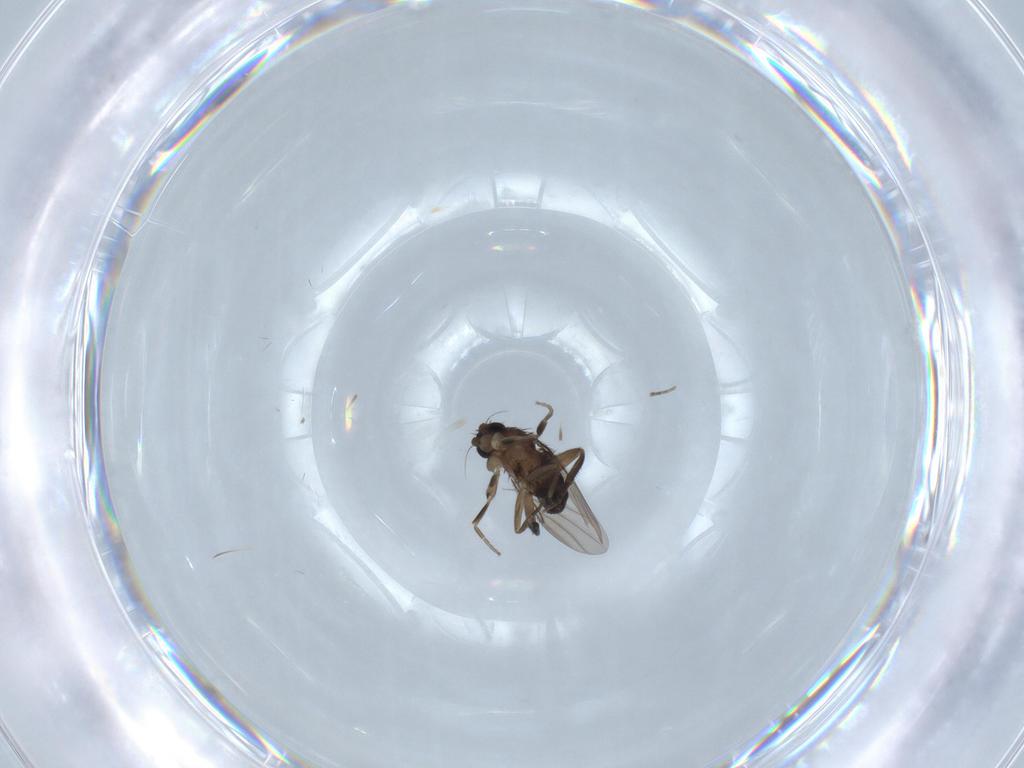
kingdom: Animalia
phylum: Arthropoda
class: Insecta
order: Diptera
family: Phoridae
